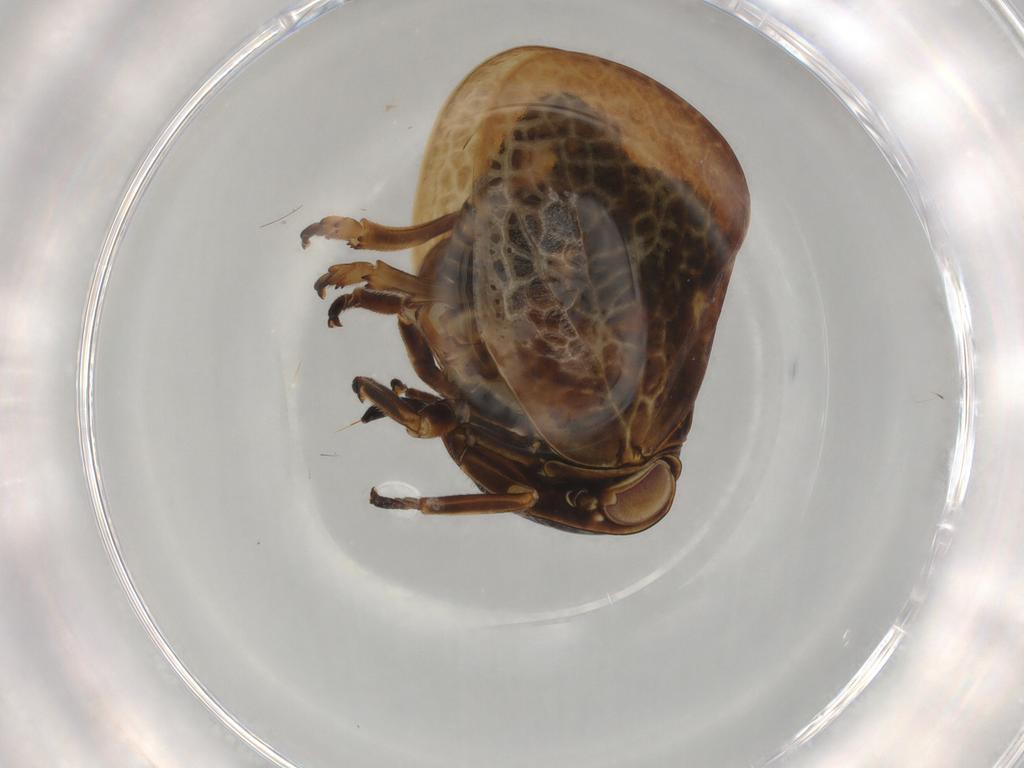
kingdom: Animalia
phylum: Arthropoda
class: Insecta
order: Hemiptera
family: Nogodinidae
